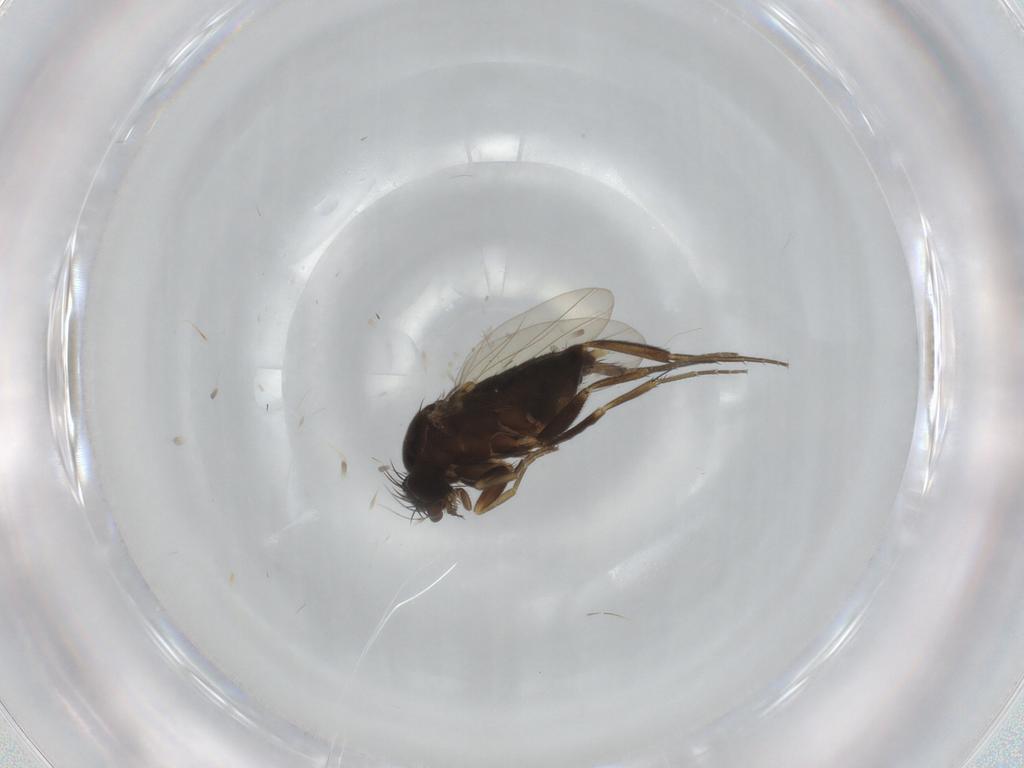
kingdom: Animalia
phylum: Arthropoda
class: Insecta
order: Diptera
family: Phoridae
